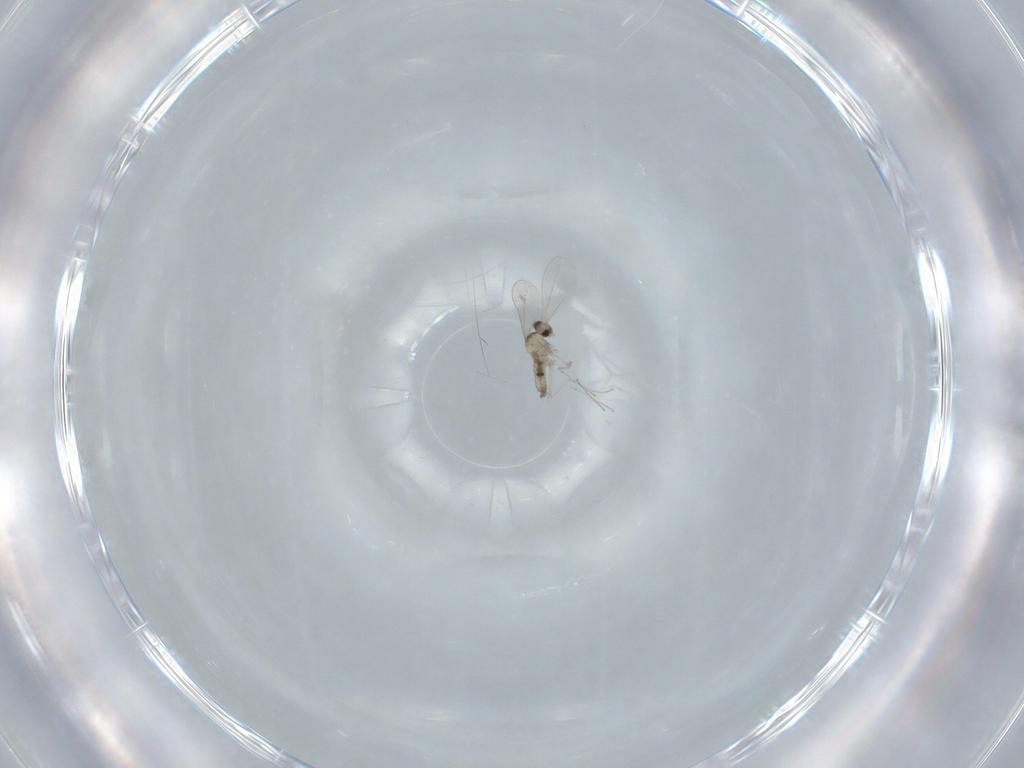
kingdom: Animalia
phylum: Arthropoda
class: Insecta
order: Diptera
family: Cecidomyiidae
